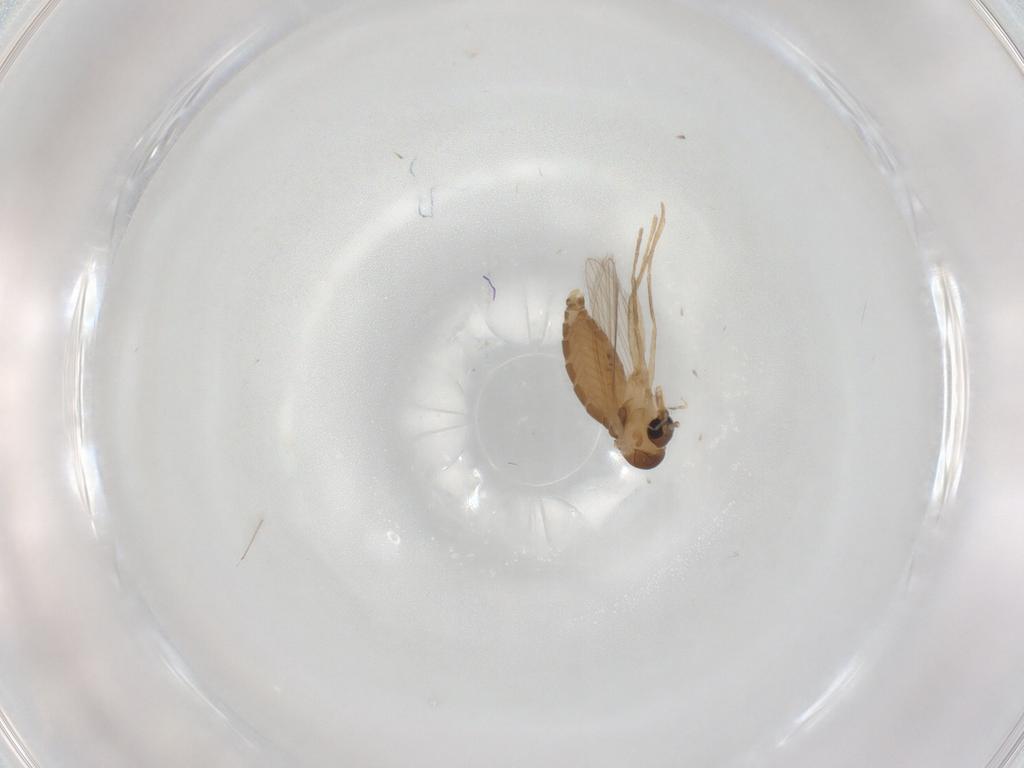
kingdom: Animalia
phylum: Arthropoda
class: Insecta
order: Diptera
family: Psychodidae
